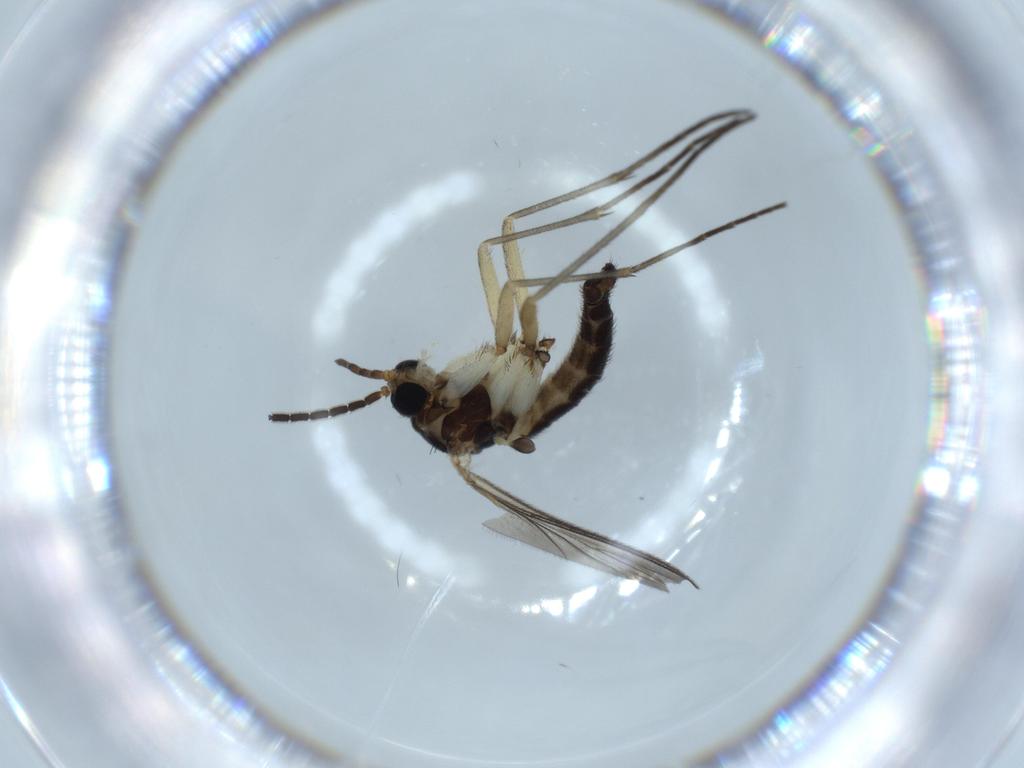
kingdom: Animalia
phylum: Arthropoda
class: Insecta
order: Diptera
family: Sciaridae
